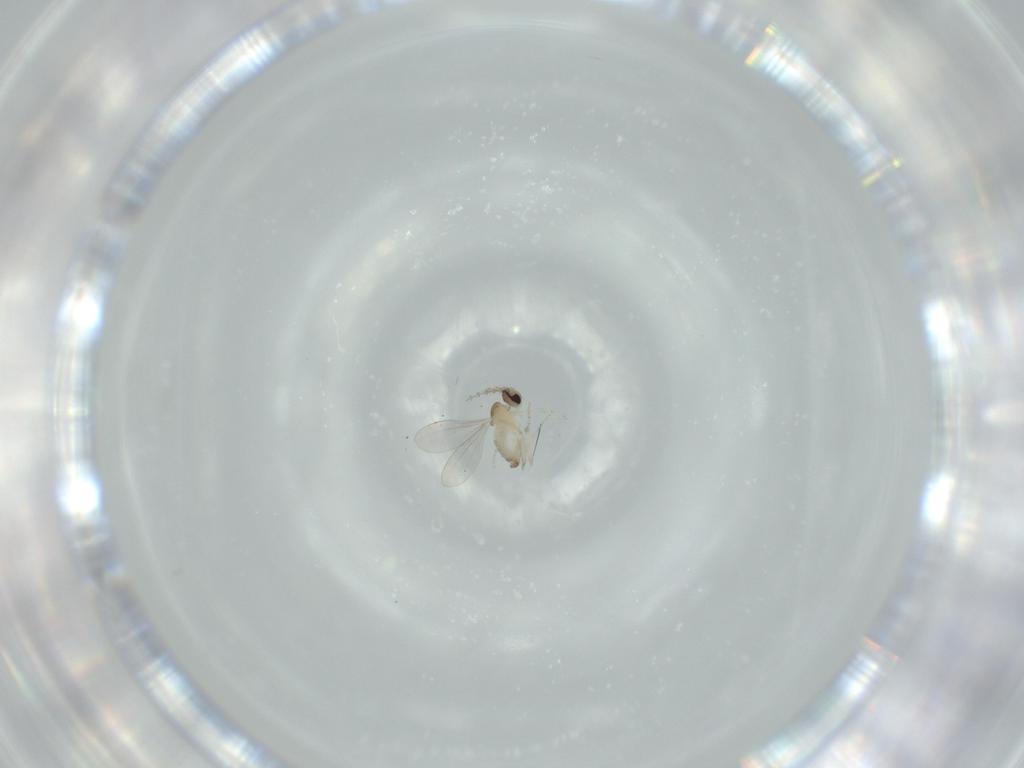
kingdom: Animalia
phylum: Arthropoda
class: Insecta
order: Diptera
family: Cecidomyiidae
